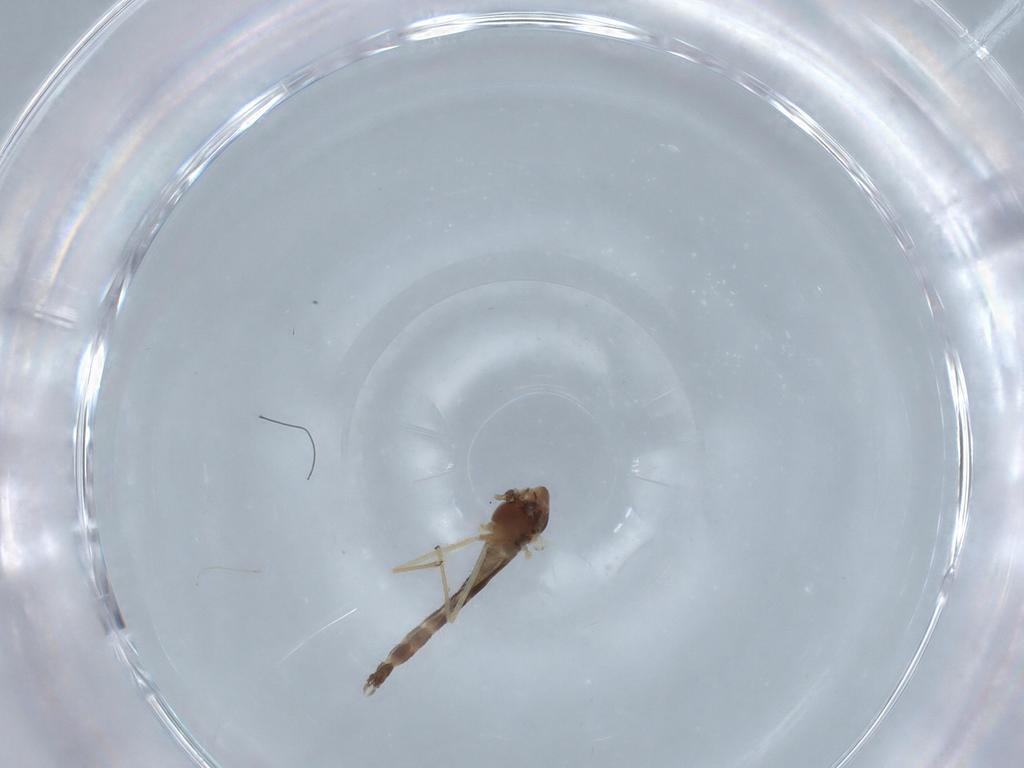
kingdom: Animalia
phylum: Arthropoda
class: Insecta
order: Diptera
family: Chironomidae
